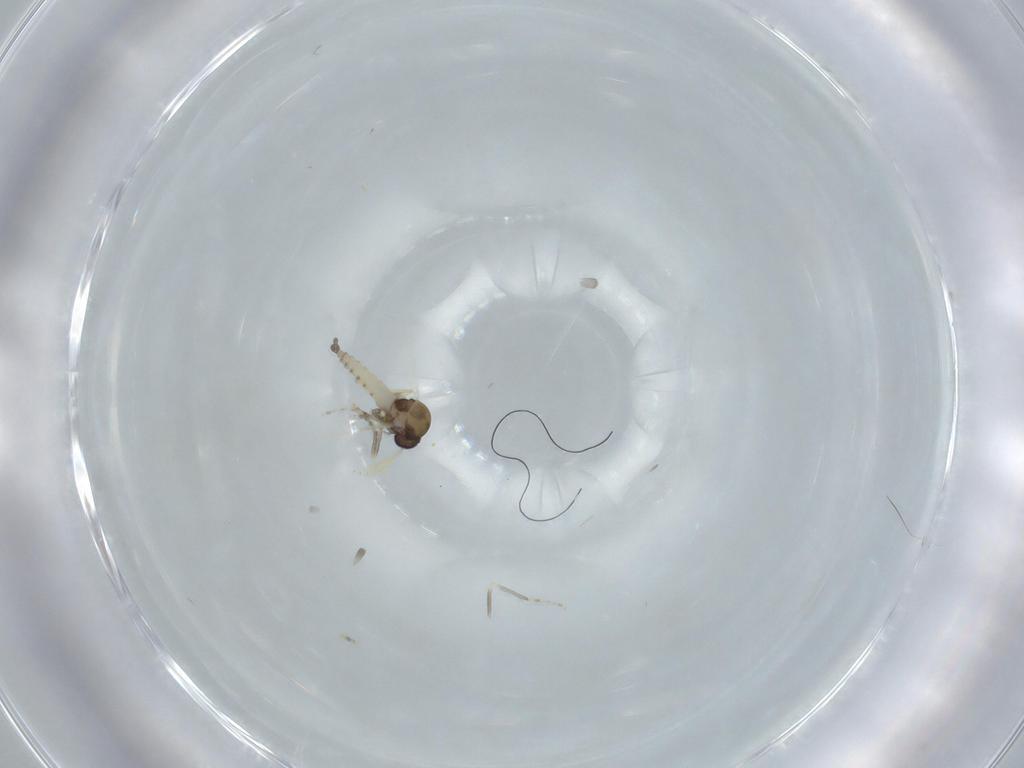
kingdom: Animalia
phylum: Arthropoda
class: Insecta
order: Diptera
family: Ceratopogonidae
